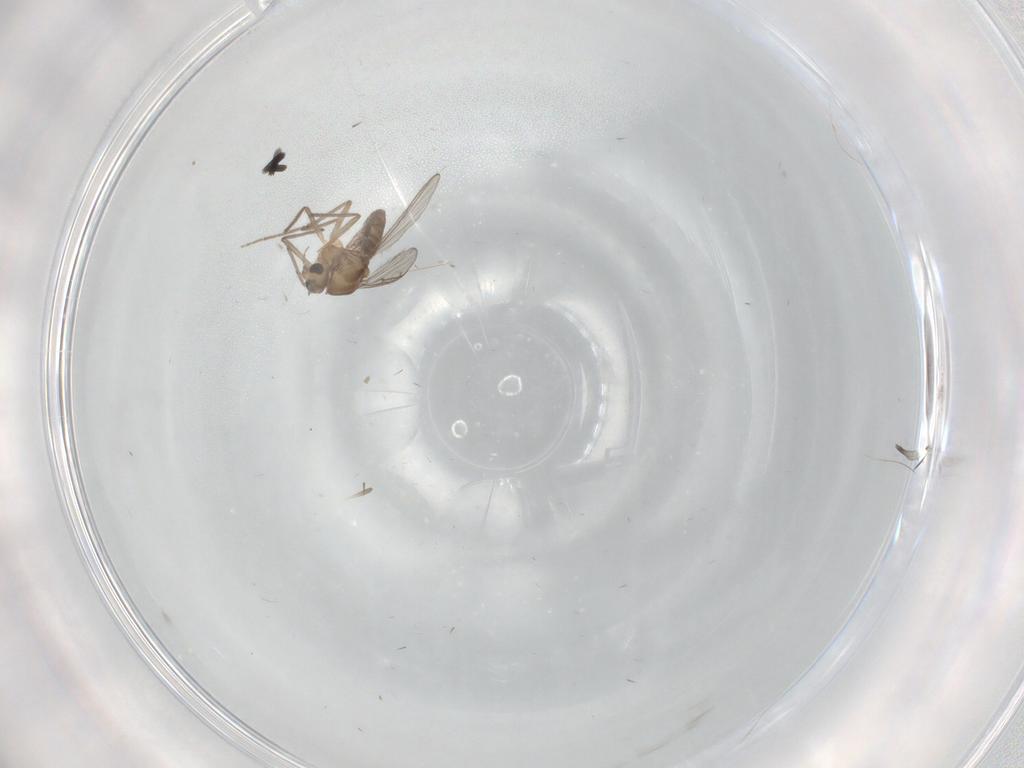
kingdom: Animalia
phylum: Arthropoda
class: Insecta
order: Diptera
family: Chironomidae
